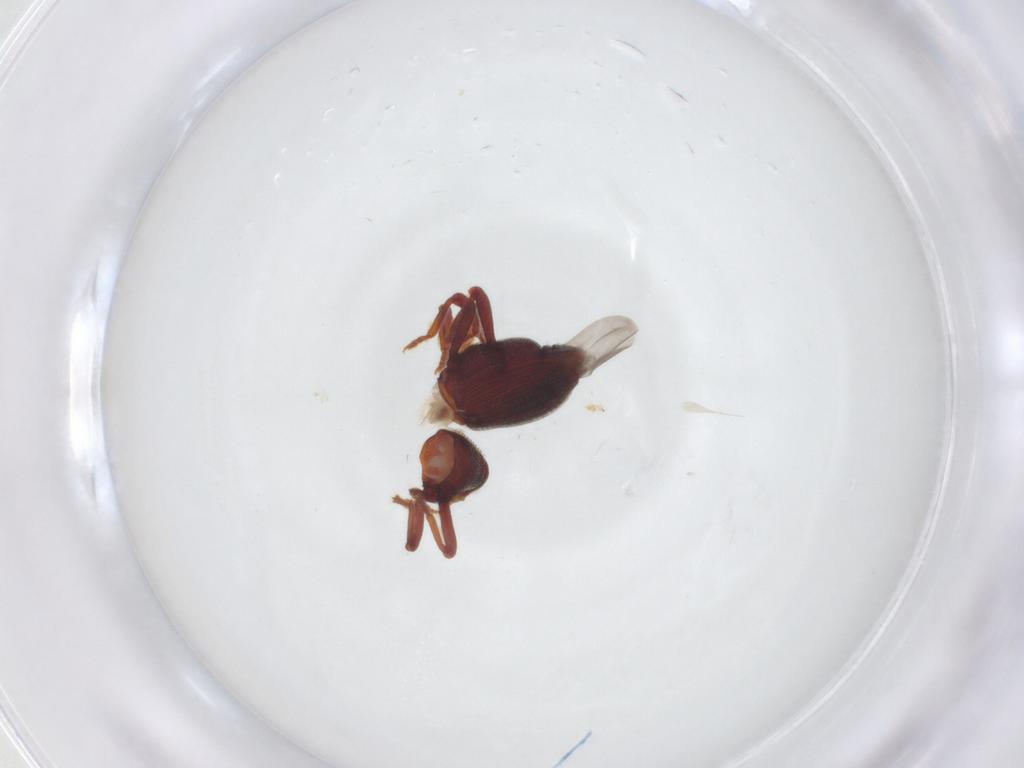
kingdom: Animalia
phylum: Arthropoda
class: Insecta
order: Coleoptera
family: Curculionidae
